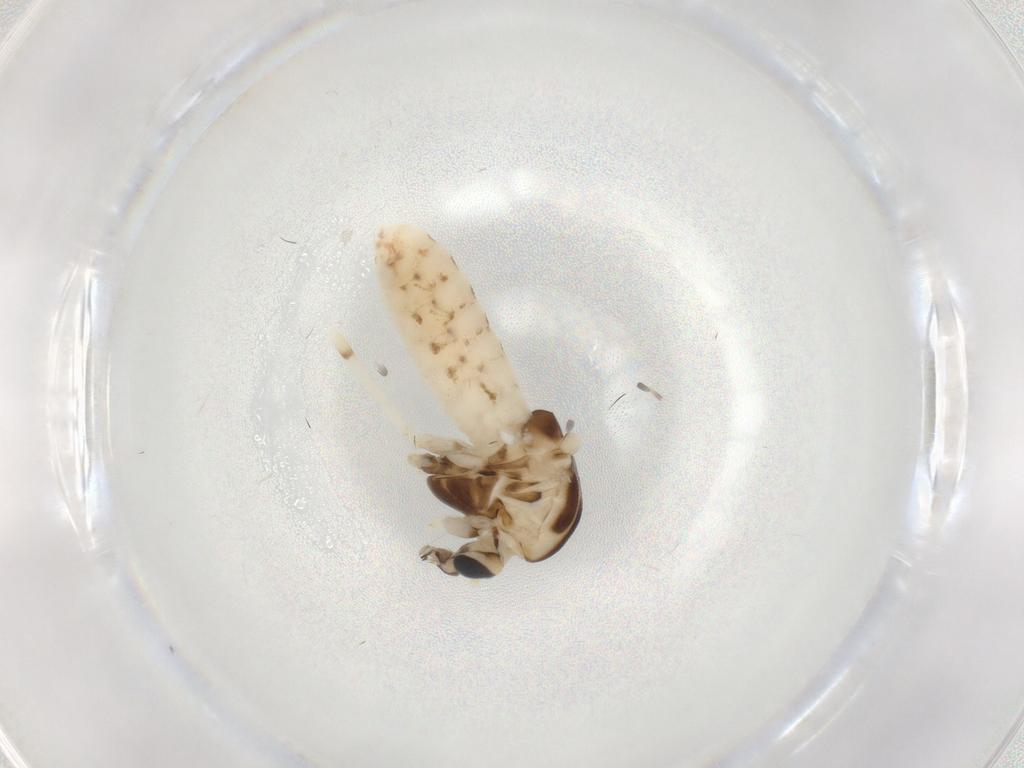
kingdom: Animalia
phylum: Arthropoda
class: Insecta
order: Diptera
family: Chironomidae
